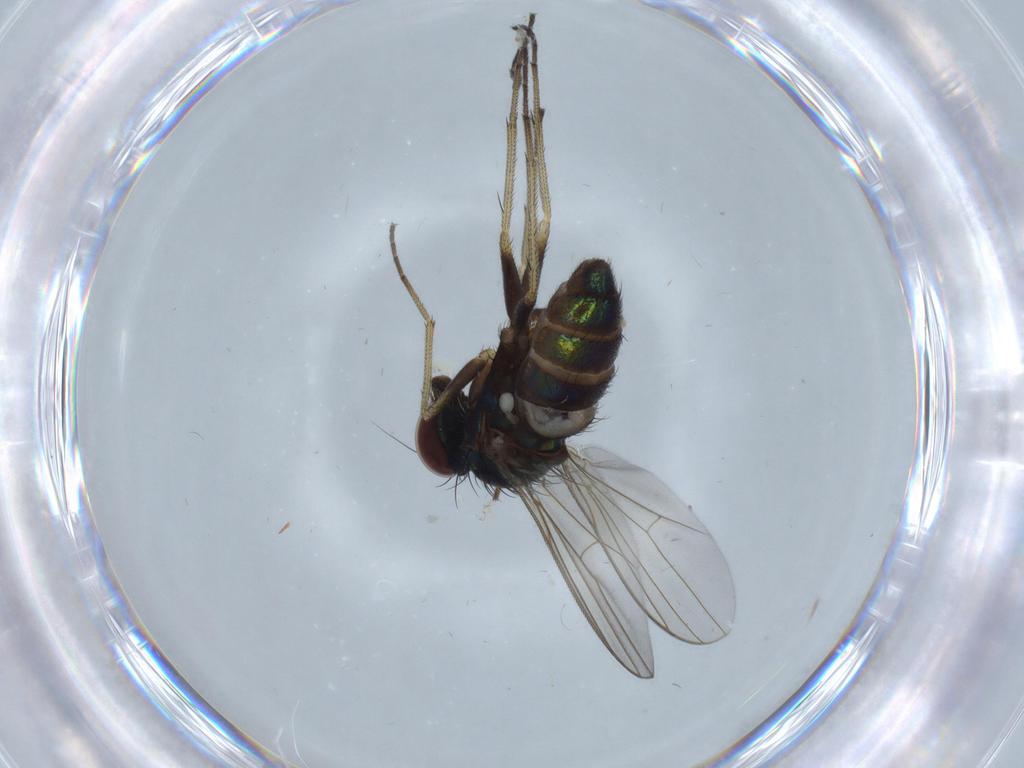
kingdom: Animalia
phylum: Arthropoda
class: Insecta
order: Diptera
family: Dolichopodidae
